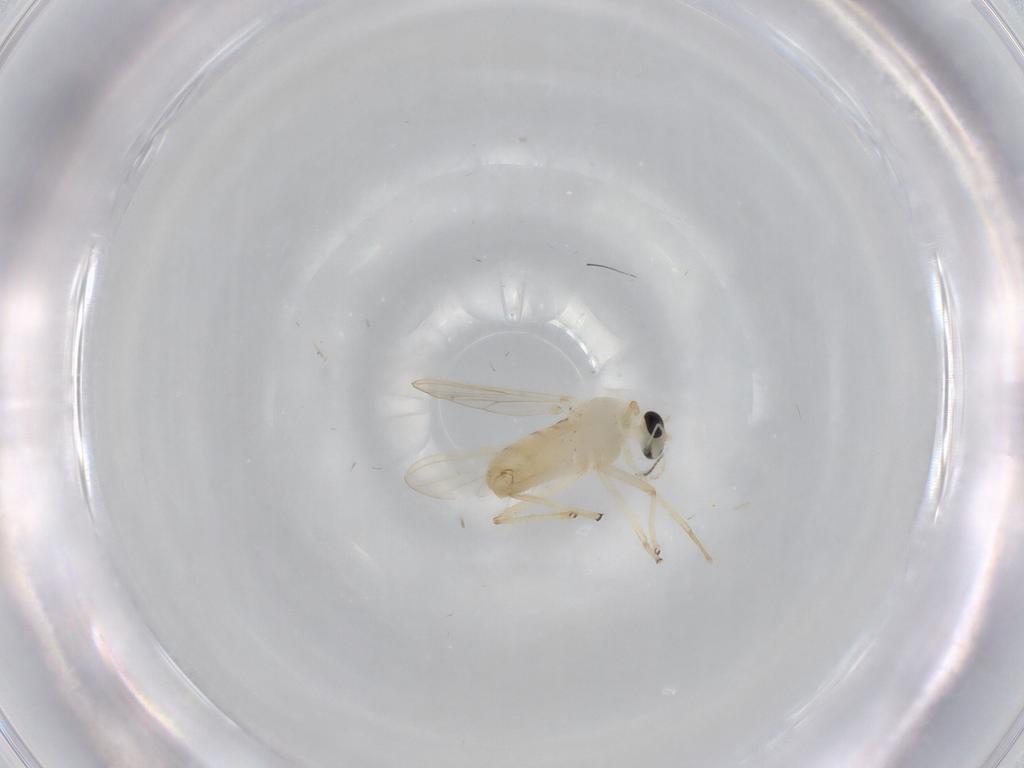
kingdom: Animalia
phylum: Arthropoda
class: Insecta
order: Diptera
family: Chironomidae
